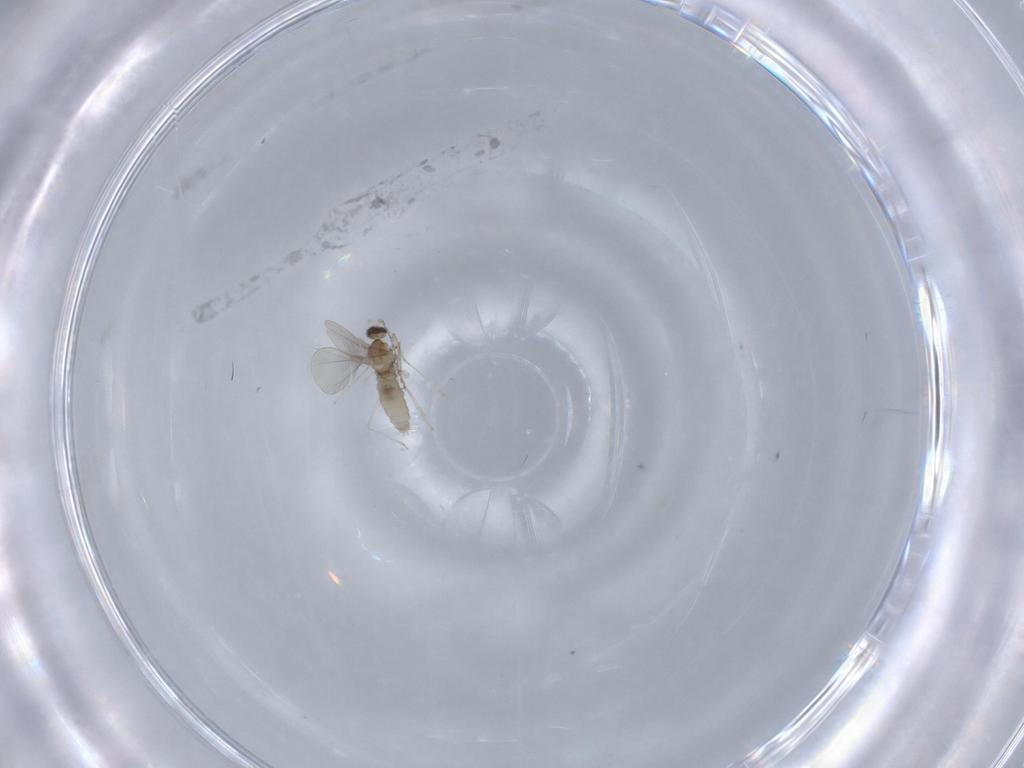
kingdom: Animalia
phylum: Arthropoda
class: Insecta
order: Diptera
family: Cecidomyiidae
